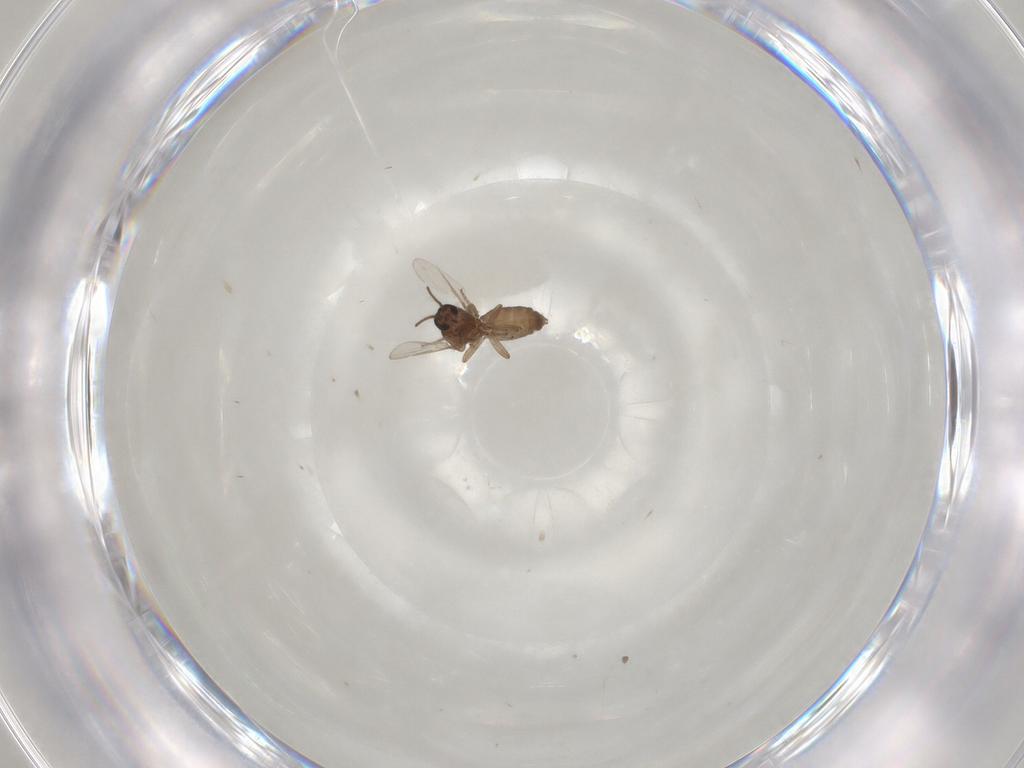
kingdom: Animalia
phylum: Arthropoda
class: Insecta
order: Diptera
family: Ceratopogonidae
